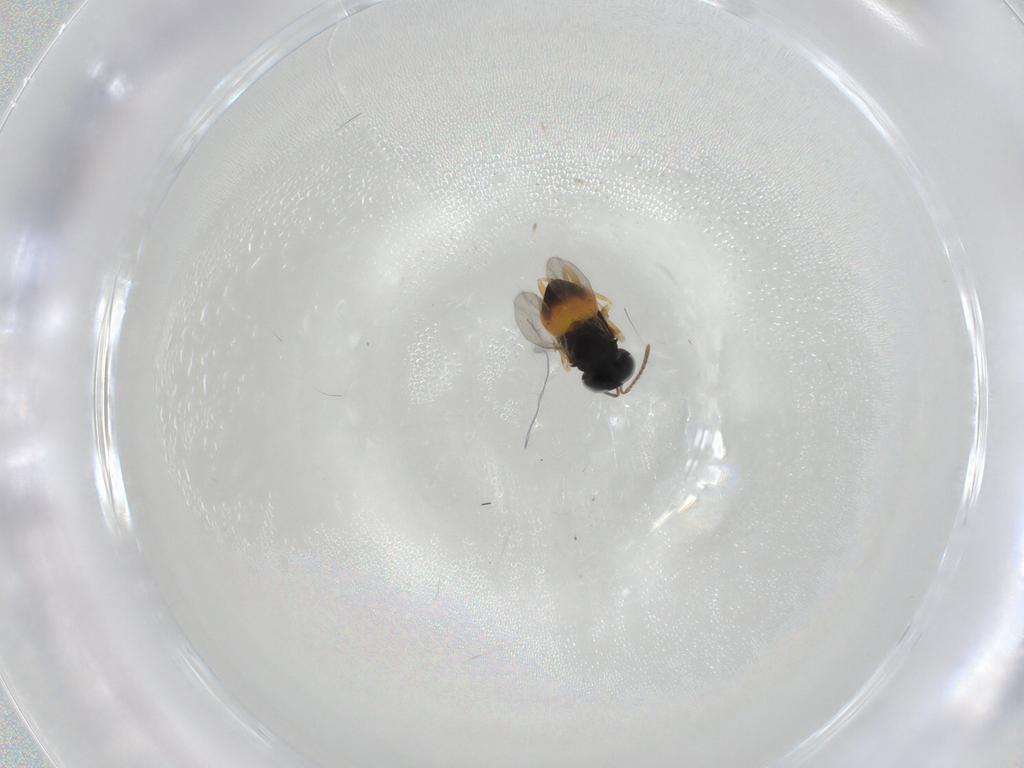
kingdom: Animalia
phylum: Arthropoda
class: Insecta
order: Hymenoptera
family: Encyrtidae
